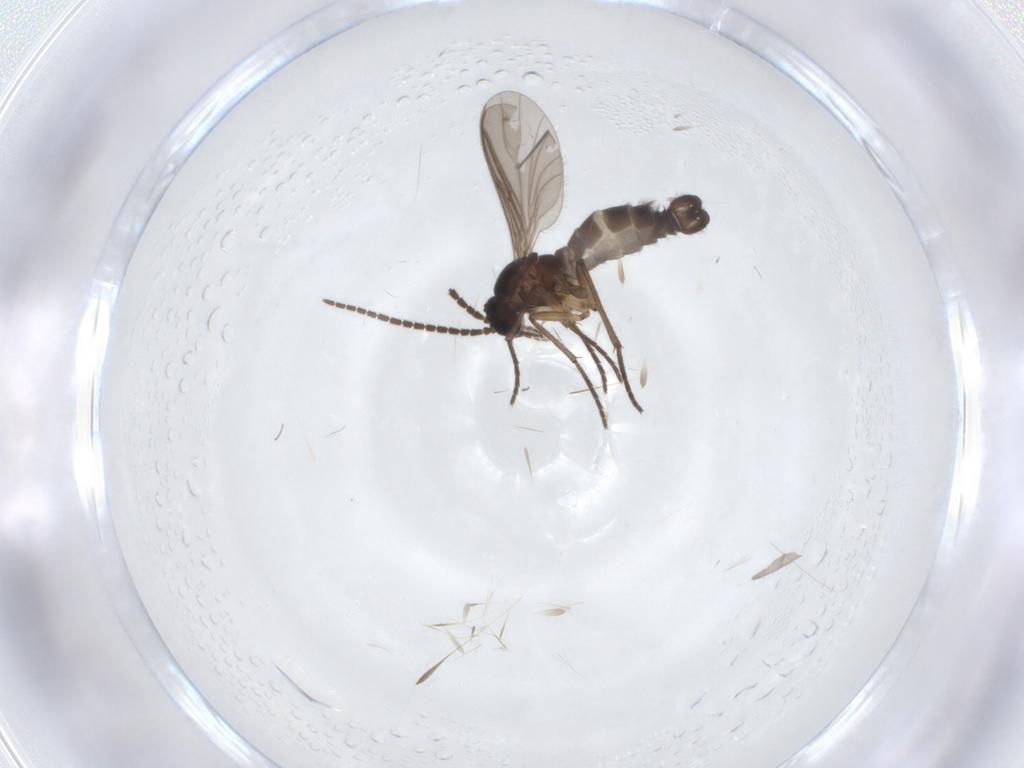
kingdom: Animalia
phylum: Arthropoda
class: Insecta
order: Diptera
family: Sciaridae
